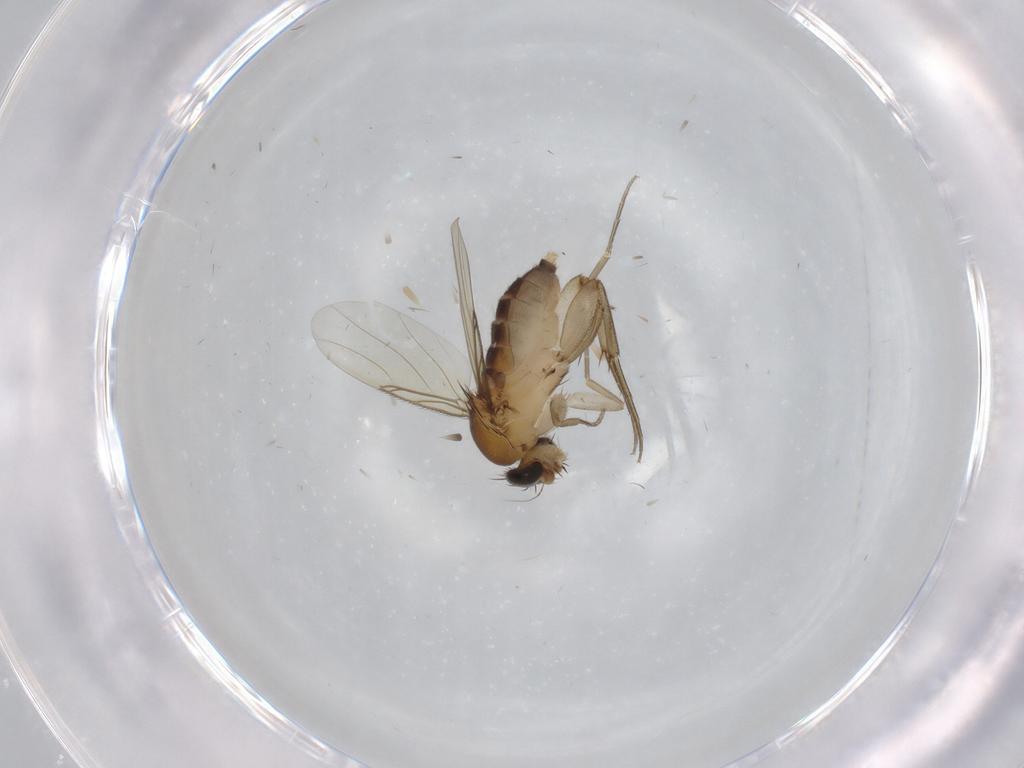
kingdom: Animalia
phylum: Arthropoda
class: Insecta
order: Diptera
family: Phoridae
